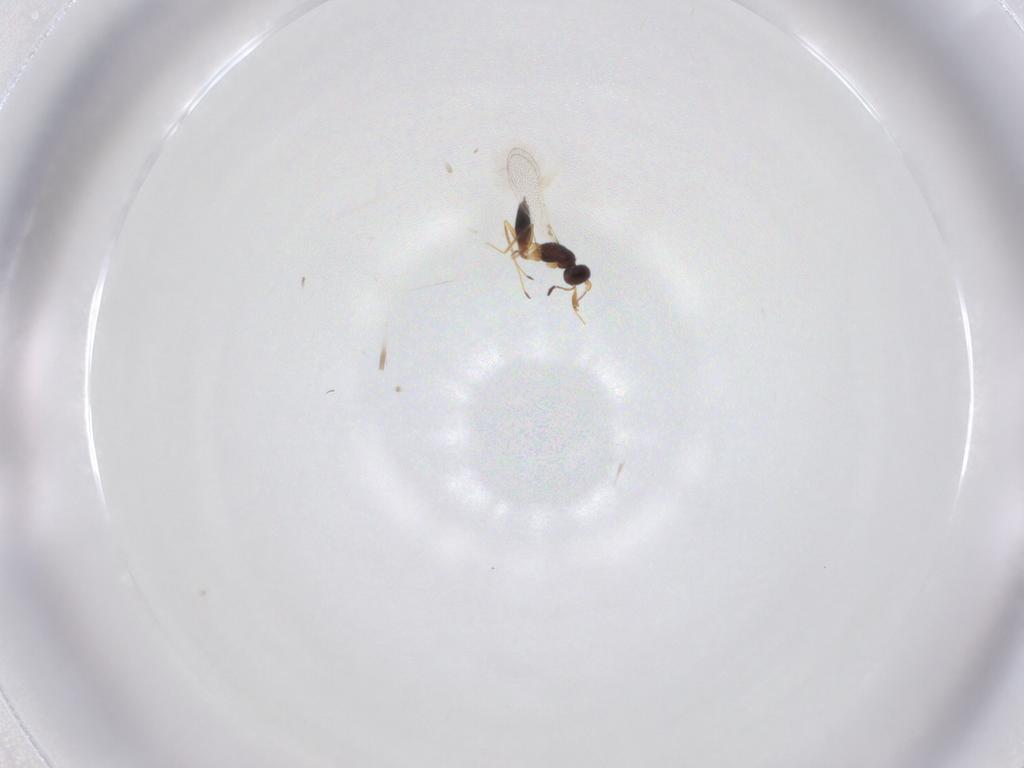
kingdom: Animalia
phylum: Arthropoda
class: Insecta
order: Hymenoptera
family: Mymaridae
